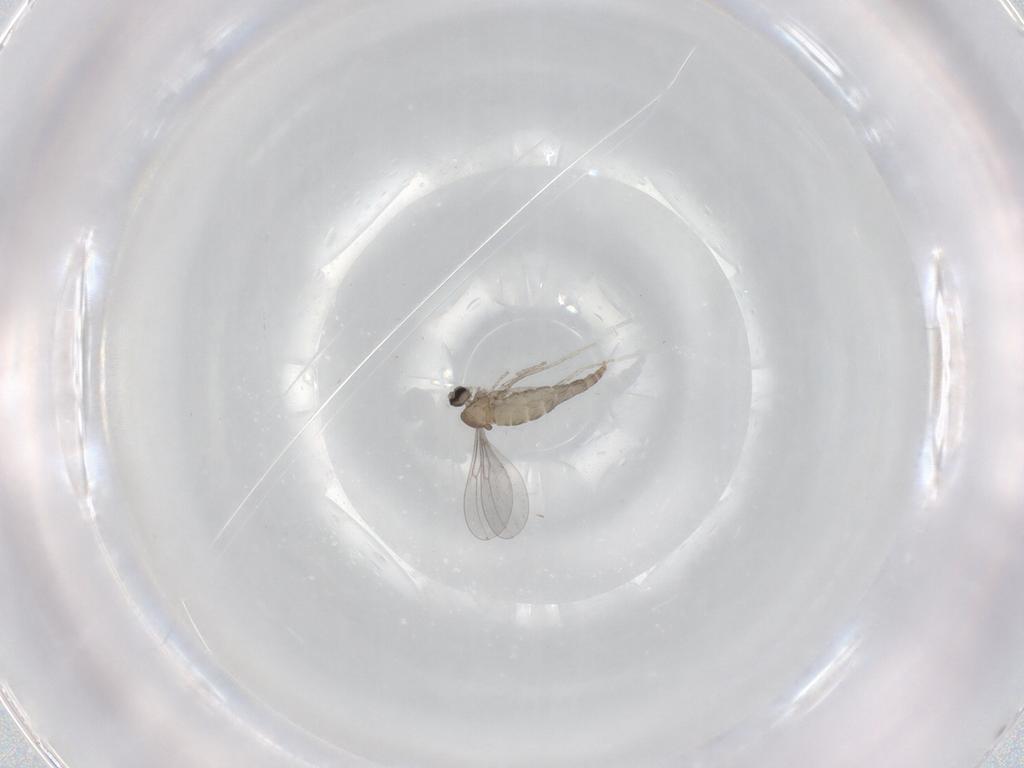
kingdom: Animalia
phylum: Arthropoda
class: Insecta
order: Diptera
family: Cecidomyiidae
